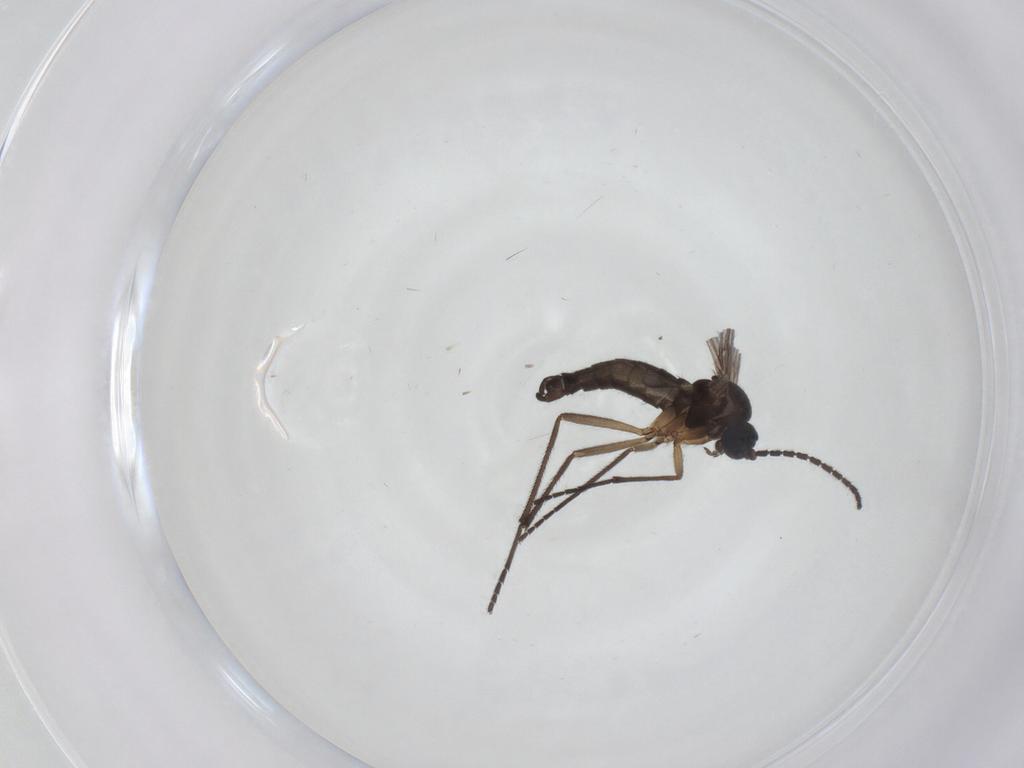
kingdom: Animalia
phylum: Arthropoda
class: Insecta
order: Diptera
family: Sciaridae
